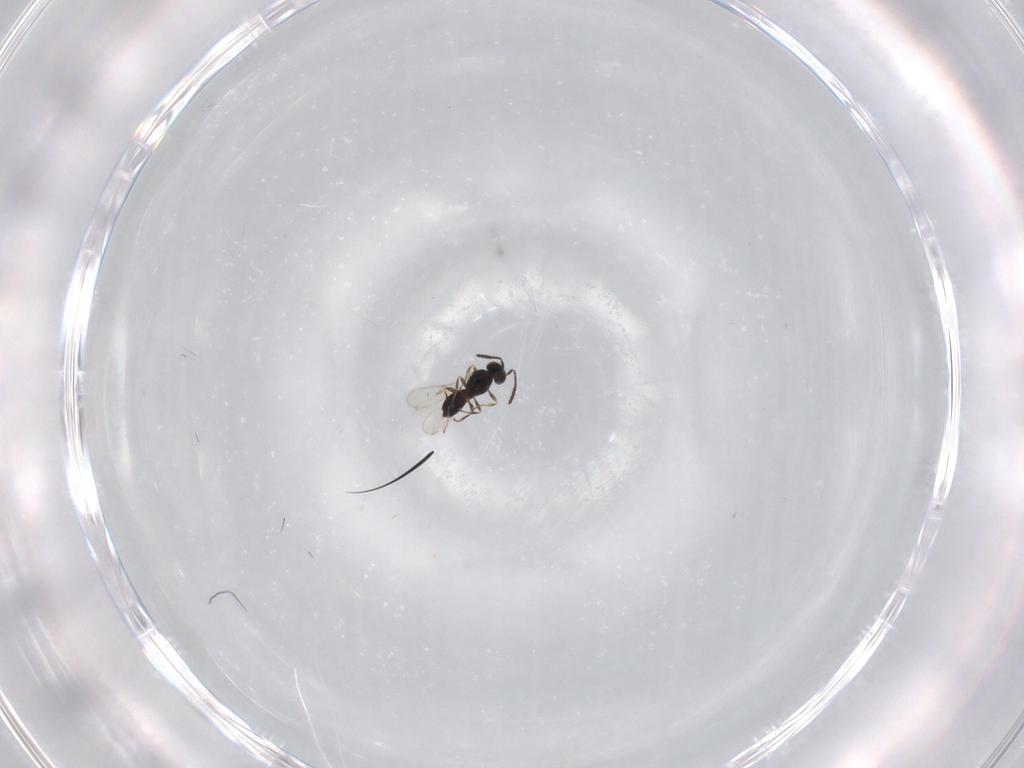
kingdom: Animalia
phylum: Arthropoda
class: Insecta
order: Hymenoptera
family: Scelionidae
